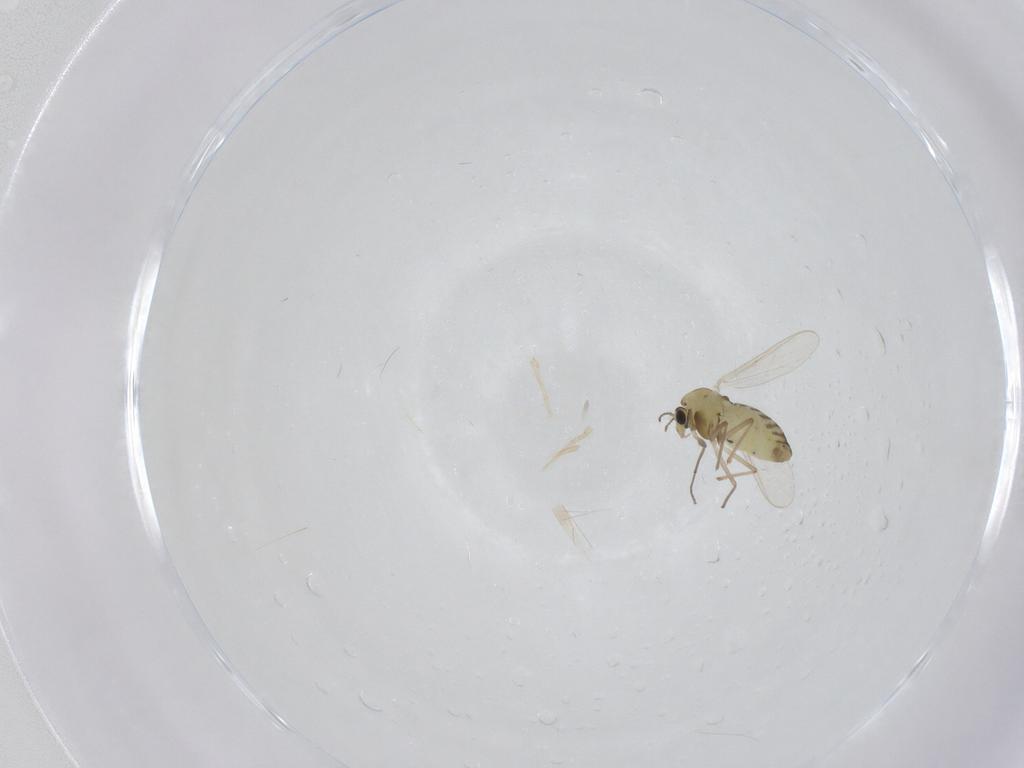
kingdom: Animalia
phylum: Arthropoda
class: Insecta
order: Diptera
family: Chironomidae
